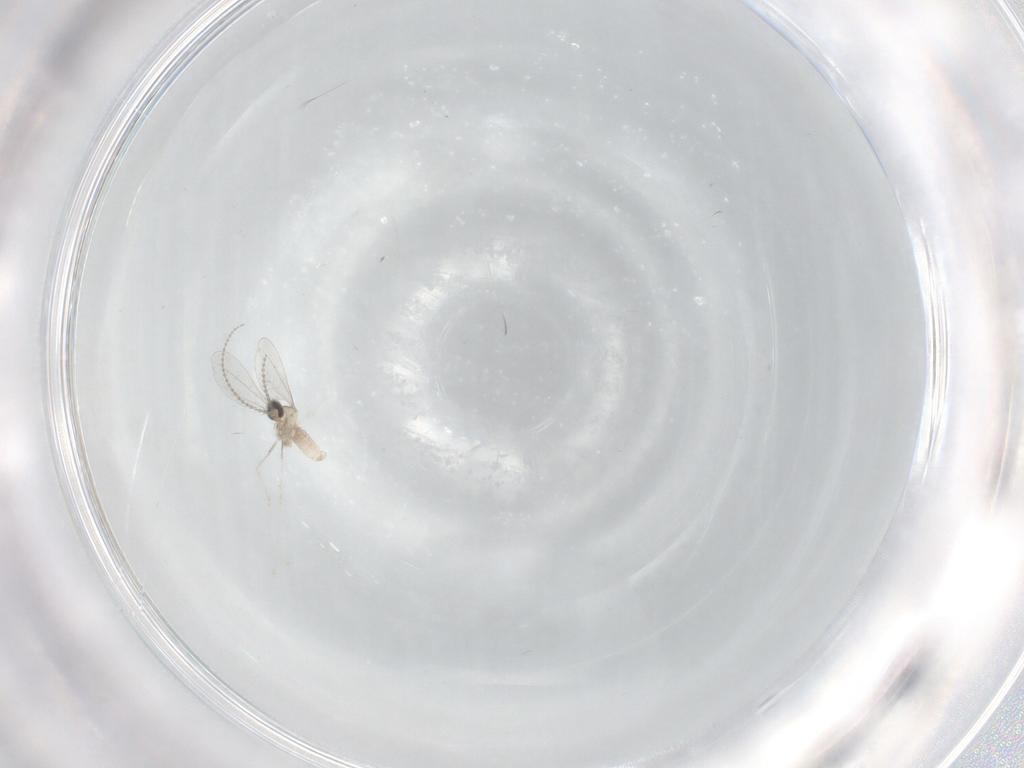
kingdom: Animalia
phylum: Arthropoda
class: Insecta
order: Diptera
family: Cecidomyiidae
